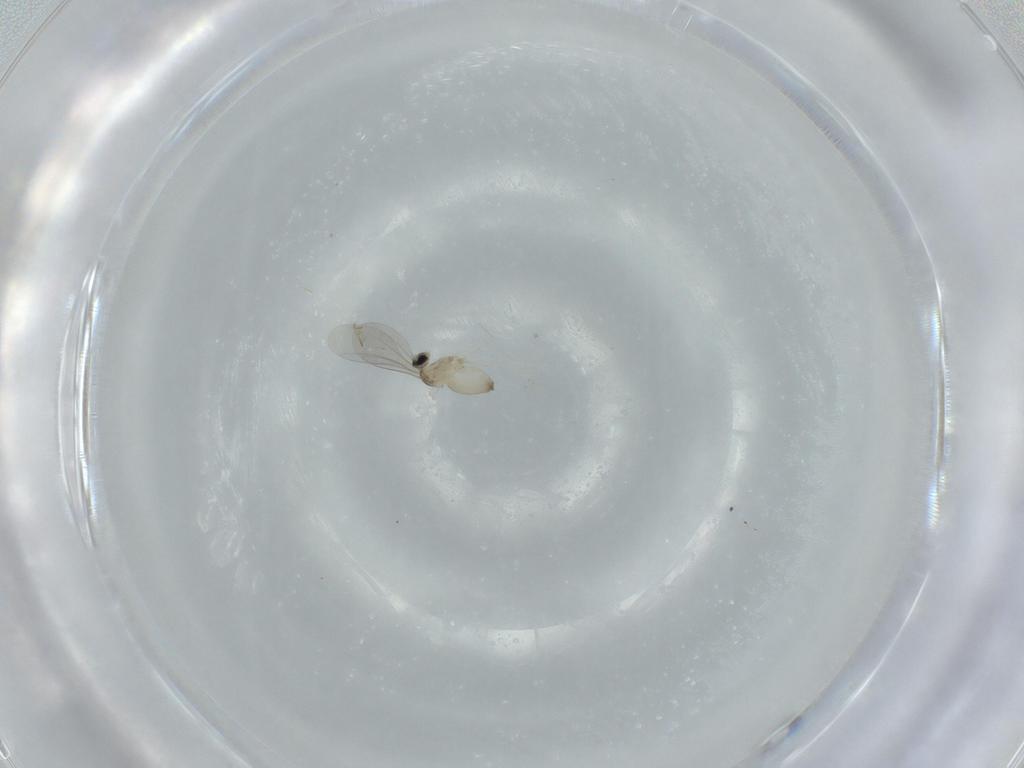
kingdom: Animalia
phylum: Arthropoda
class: Insecta
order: Diptera
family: Cecidomyiidae
